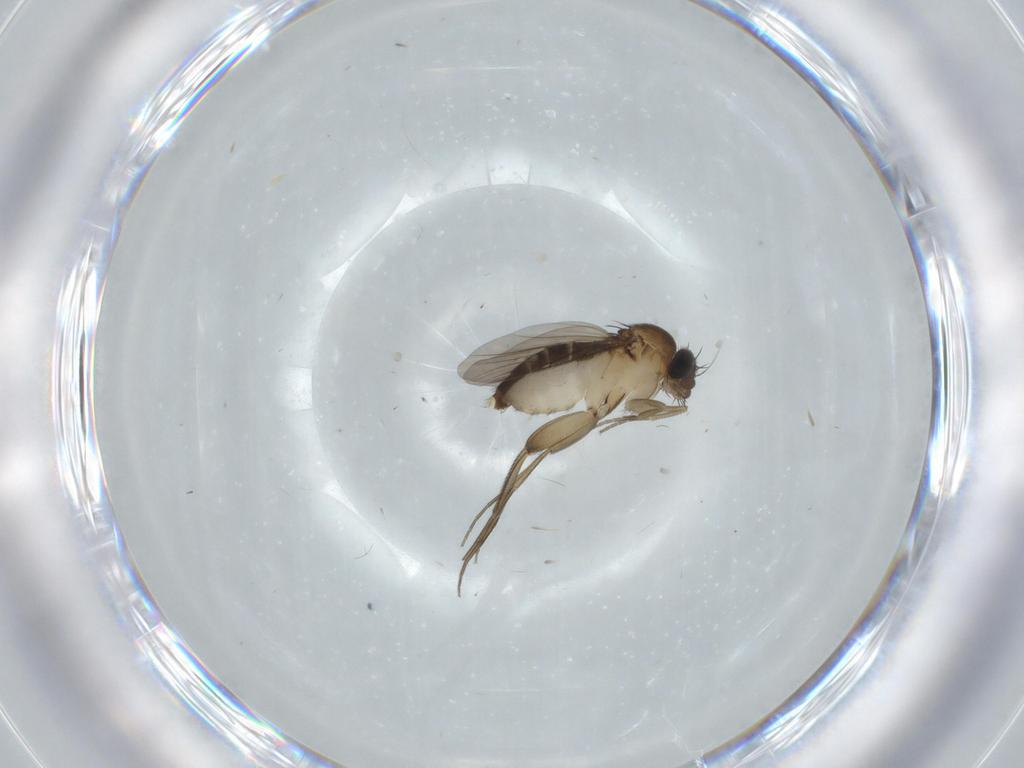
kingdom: Animalia
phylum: Arthropoda
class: Insecta
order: Diptera
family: Phoridae
